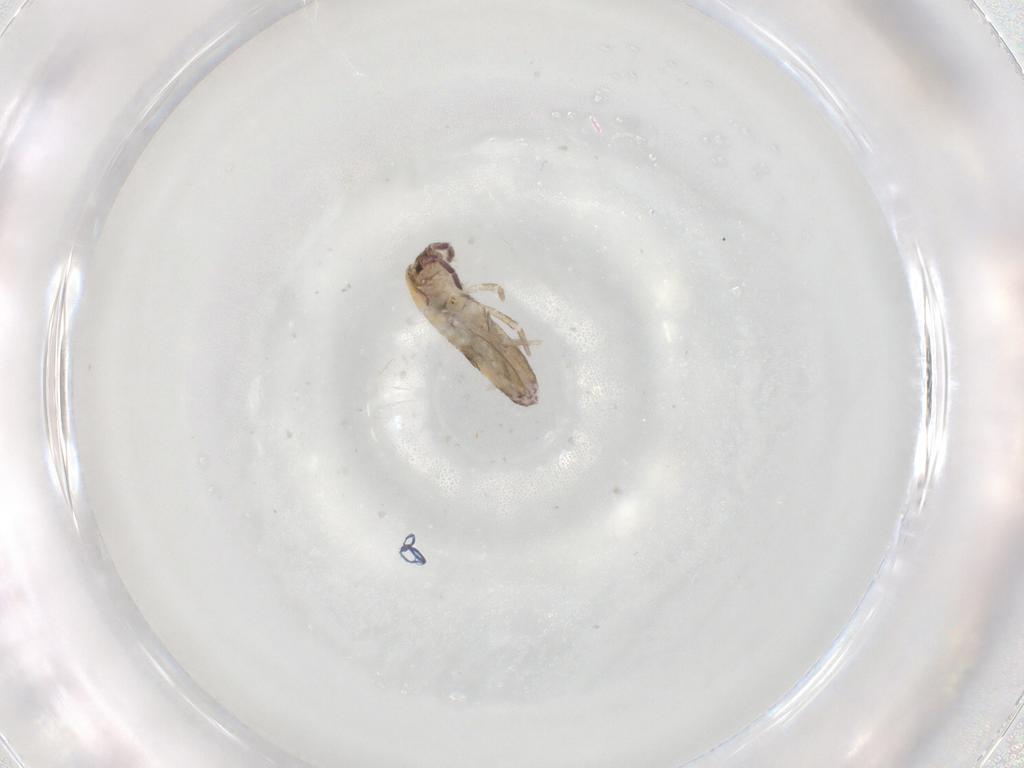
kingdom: Animalia
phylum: Arthropoda
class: Collembola
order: Entomobryomorpha
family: Entomobryidae
